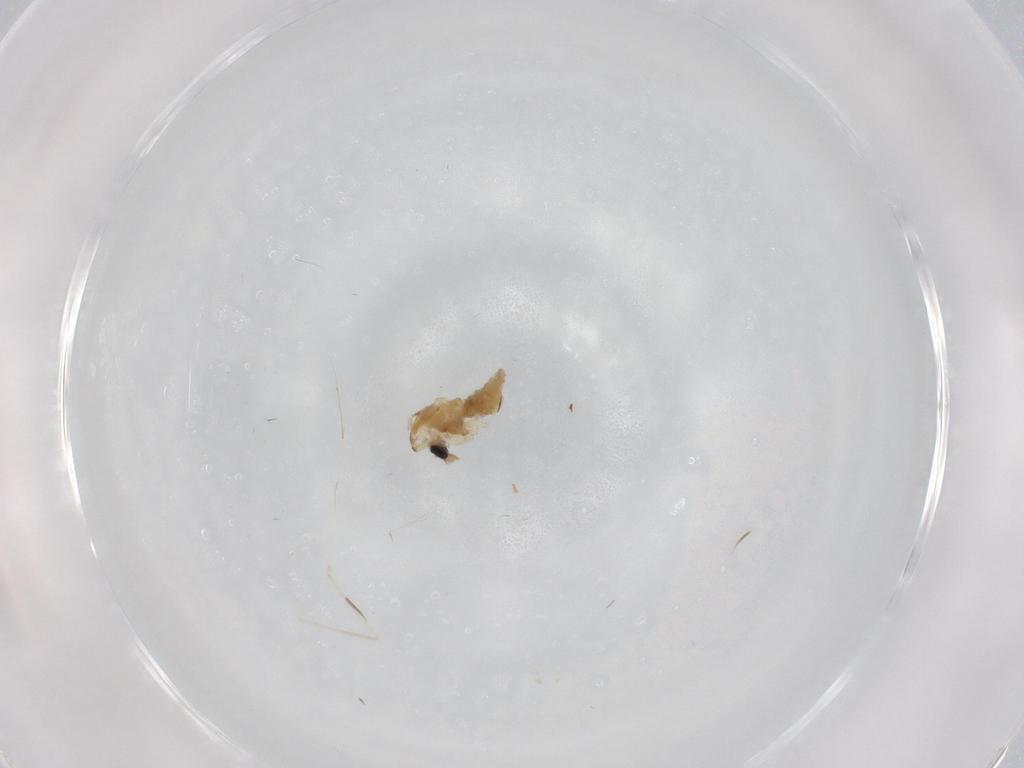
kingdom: Animalia
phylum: Arthropoda
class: Insecta
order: Diptera
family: Cecidomyiidae
